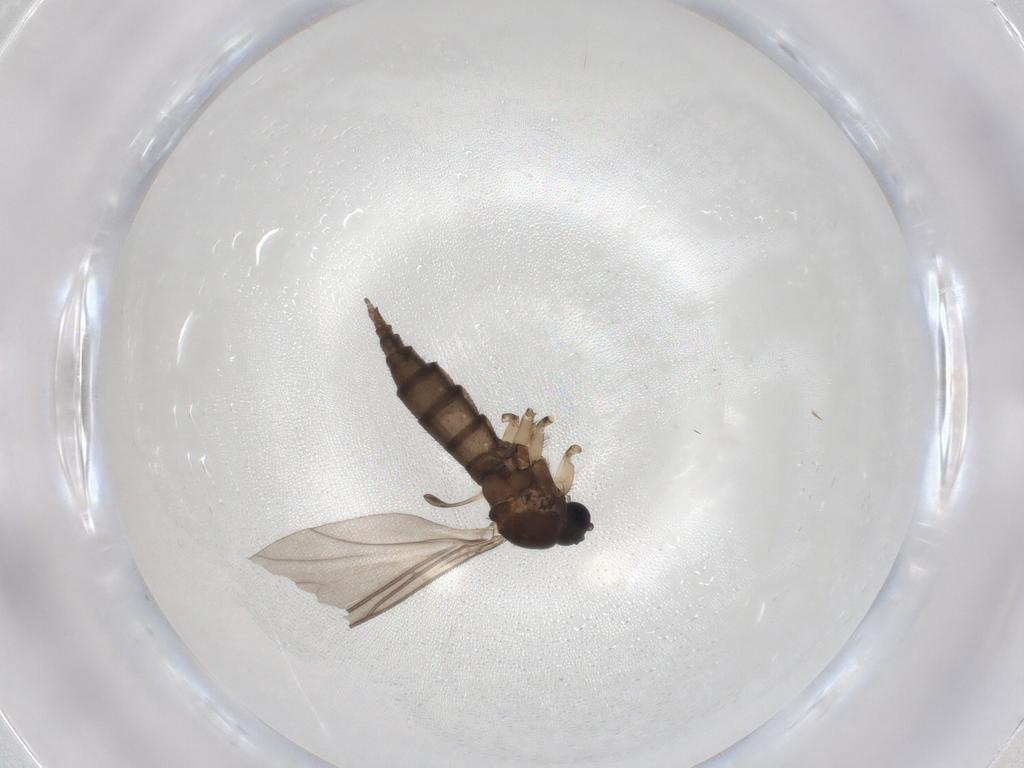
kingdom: Animalia
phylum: Arthropoda
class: Insecta
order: Diptera
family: Sciaridae
